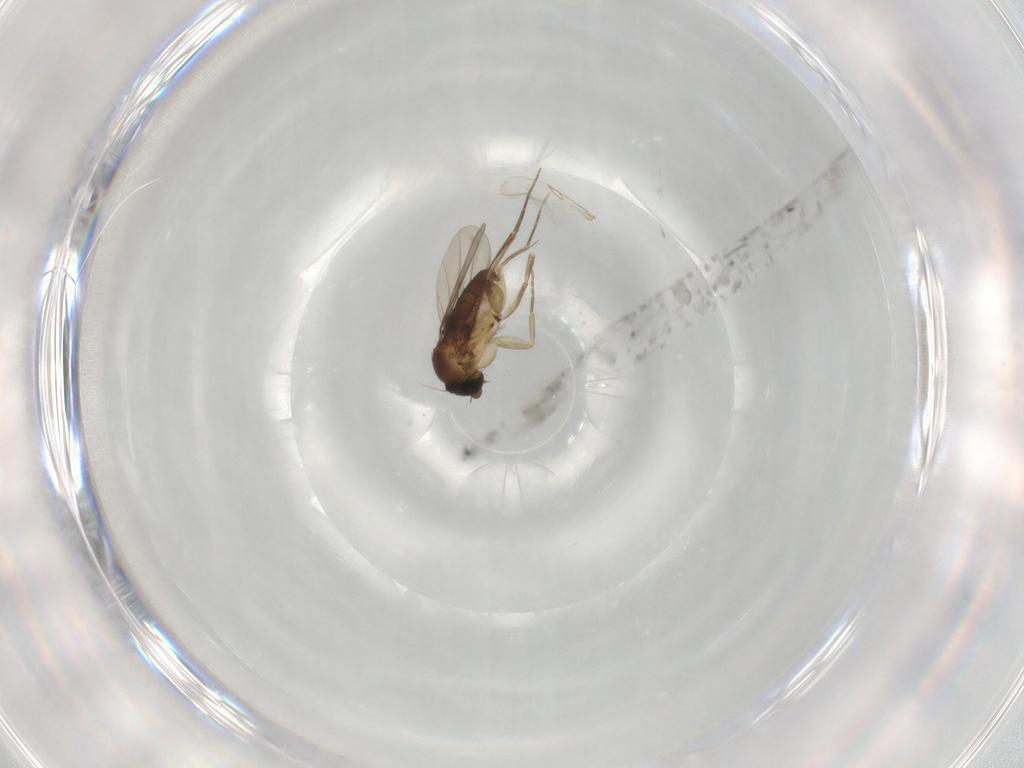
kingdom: Animalia
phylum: Arthropoda
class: Insecta
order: Diptera
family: Phoridae
